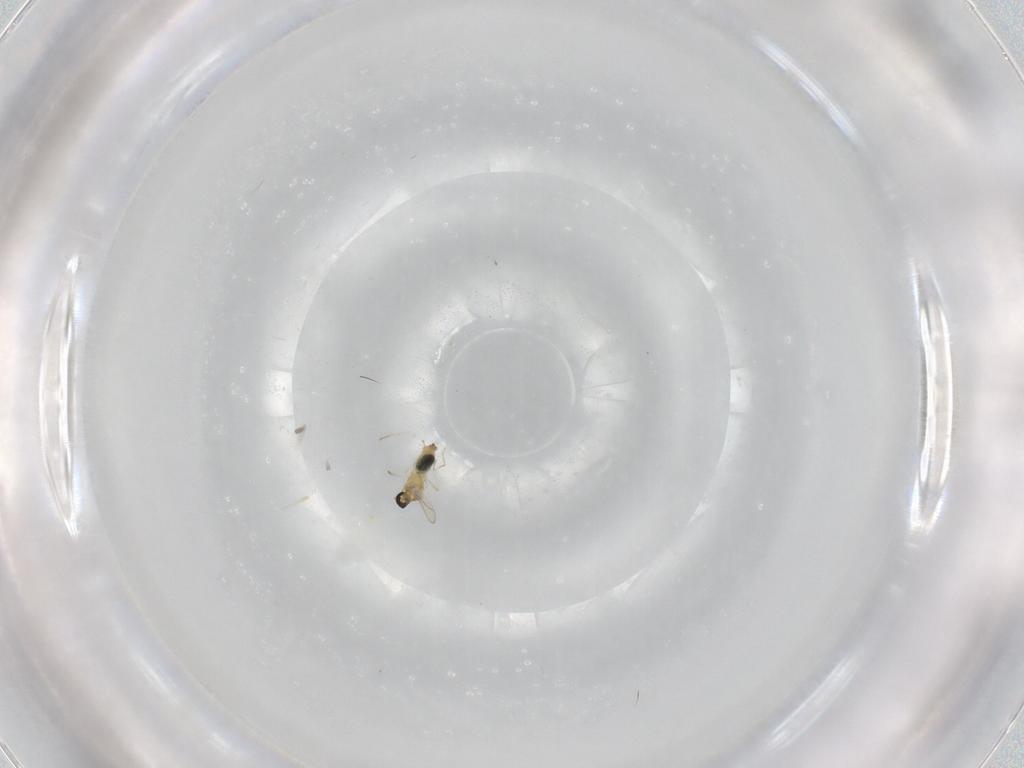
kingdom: Animalia
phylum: Arthropoda
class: Insecta
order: Diptera
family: Cecidomyiidae
